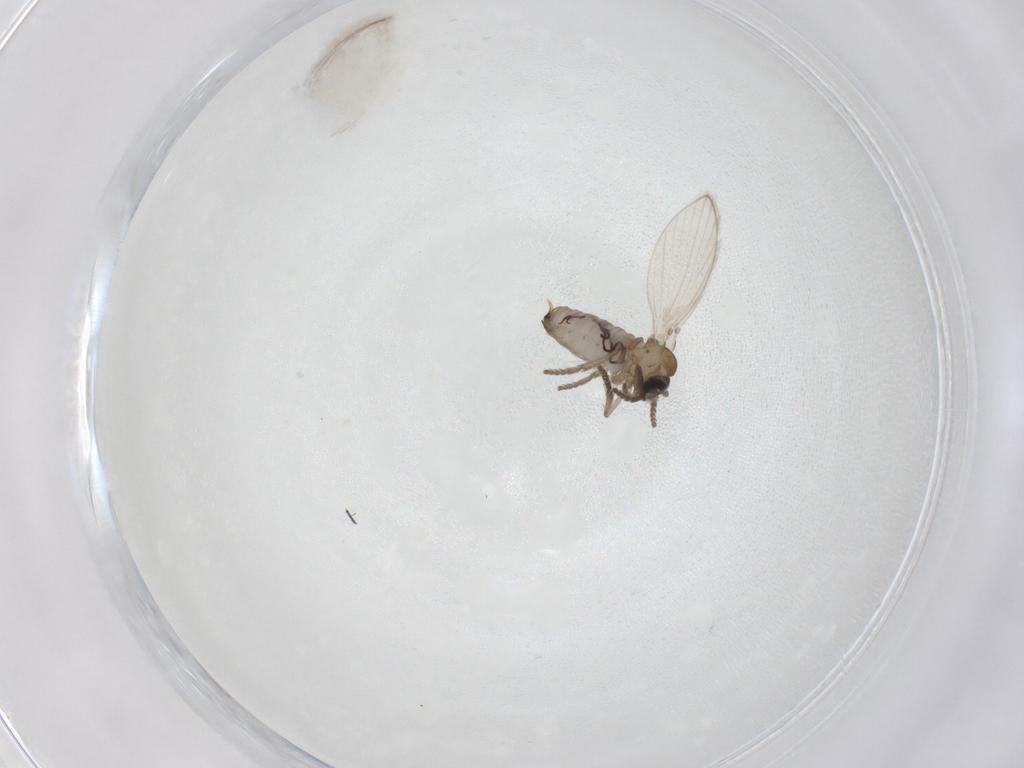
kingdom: Animalia
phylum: Arthropoda
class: Insecta
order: Diptera
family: Psychodidae
